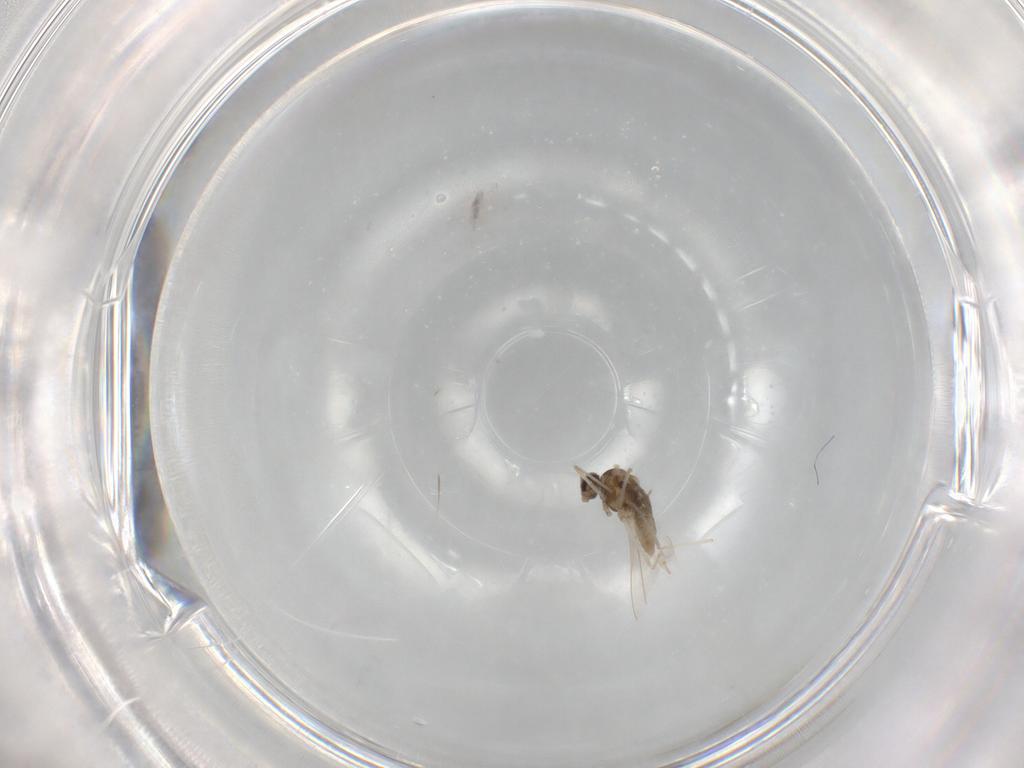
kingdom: Animalia
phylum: Arthropoda
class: Insecta
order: Diptera
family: Cecidomyiidae
